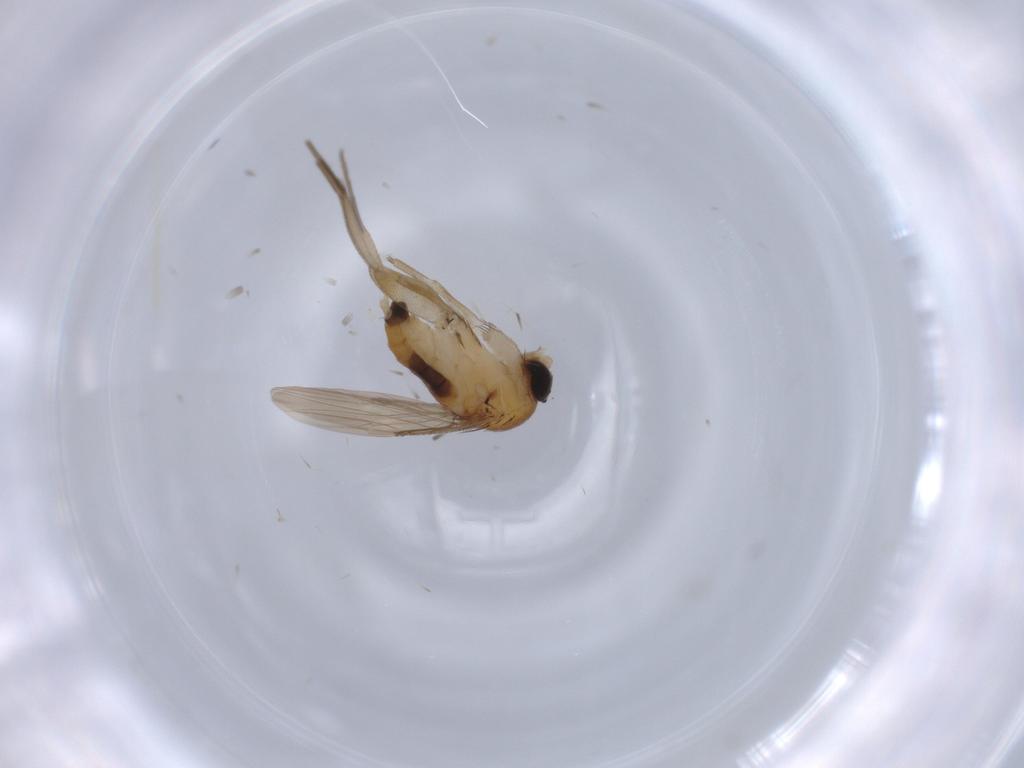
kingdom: Animalia
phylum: Arthropoda
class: Insecta
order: Diptera
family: Phoridae
